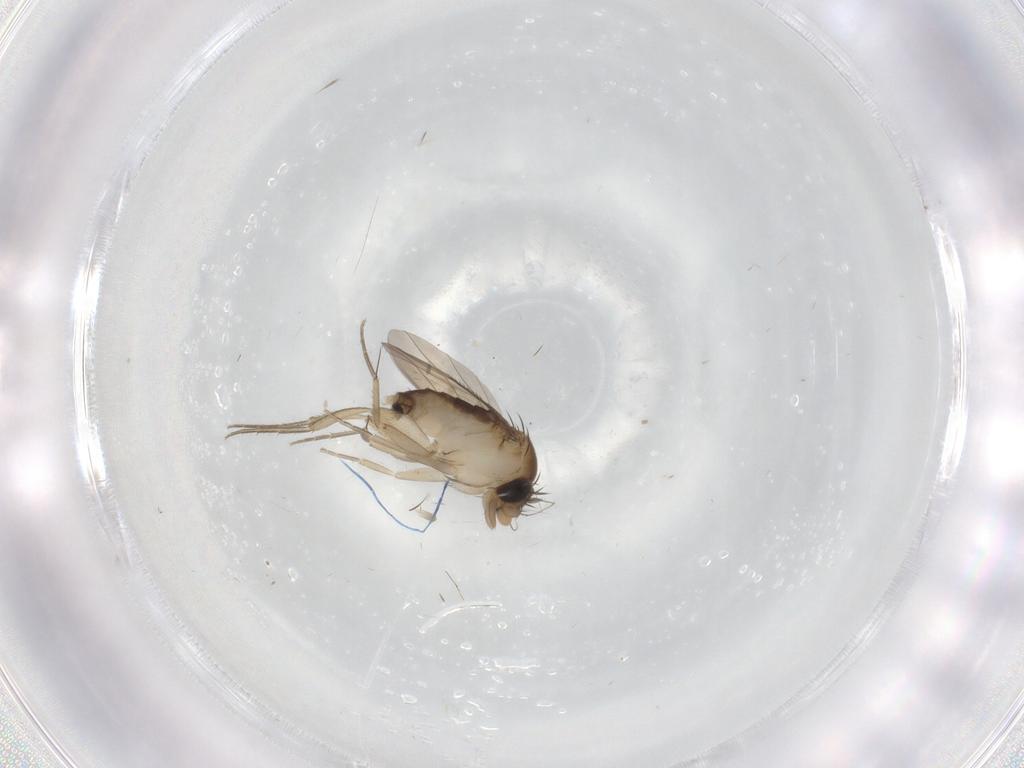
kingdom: Animalia
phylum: Arthropoda
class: Insecta
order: Diptera
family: Phoridae
